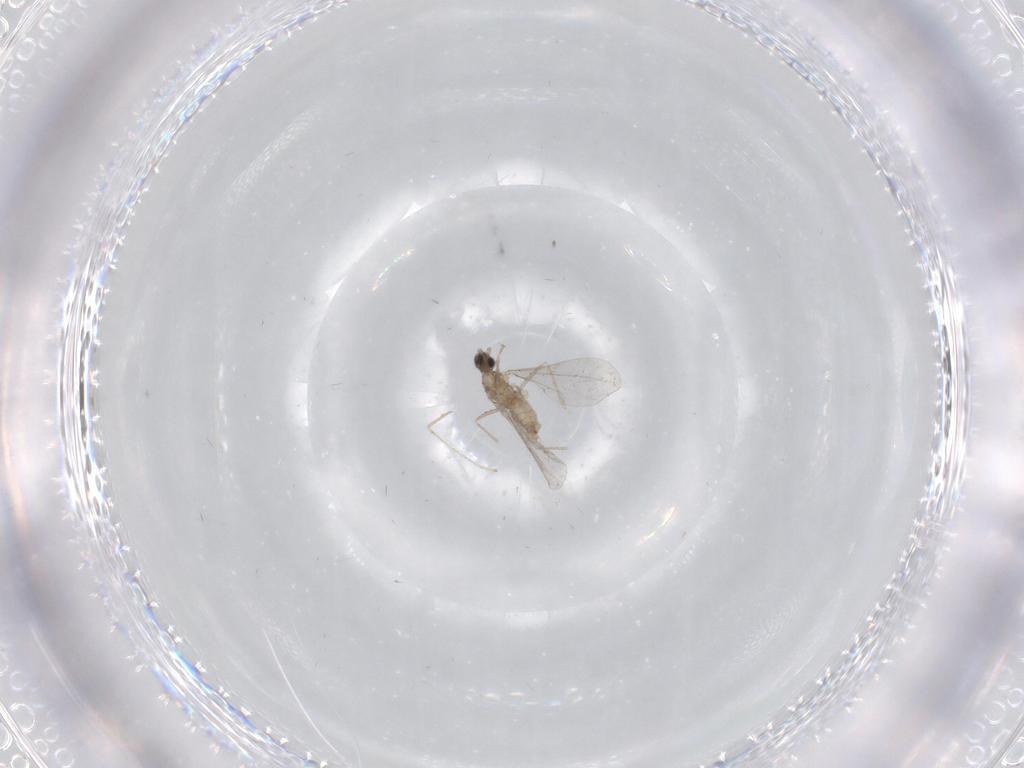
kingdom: Animalia
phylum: Arthropoda
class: Insecta
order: Diptera
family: Cecidomyiidae
